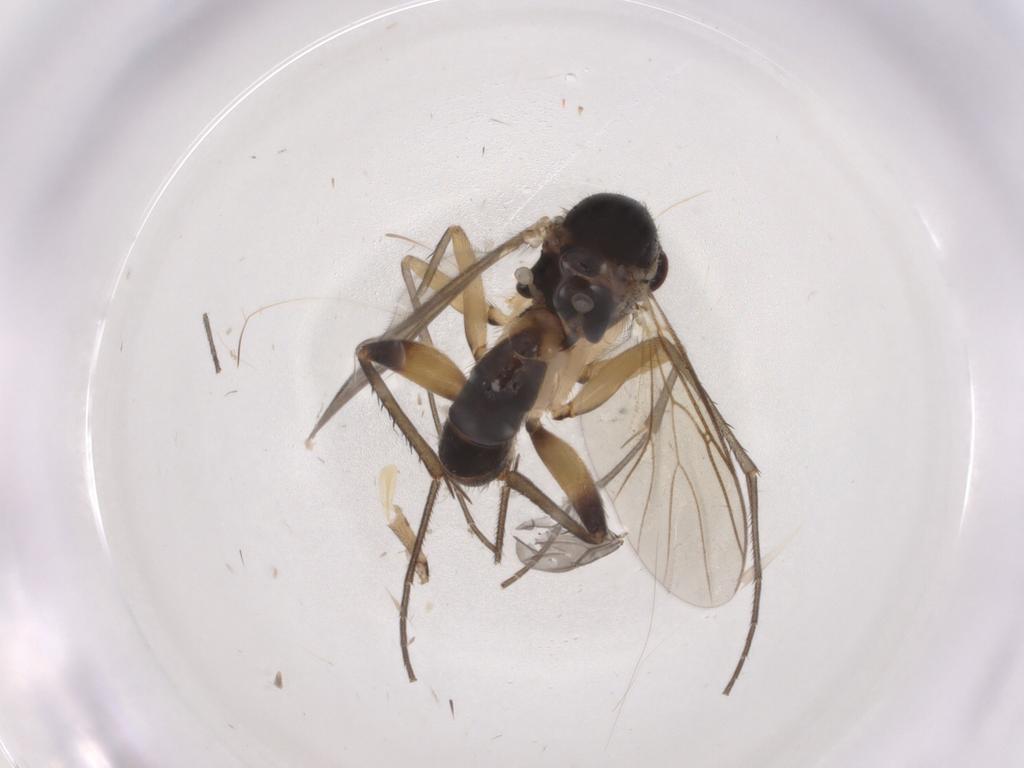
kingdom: Animalia
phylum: Arthropoda
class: Insecta
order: Diptera
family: Mycetophilidae
